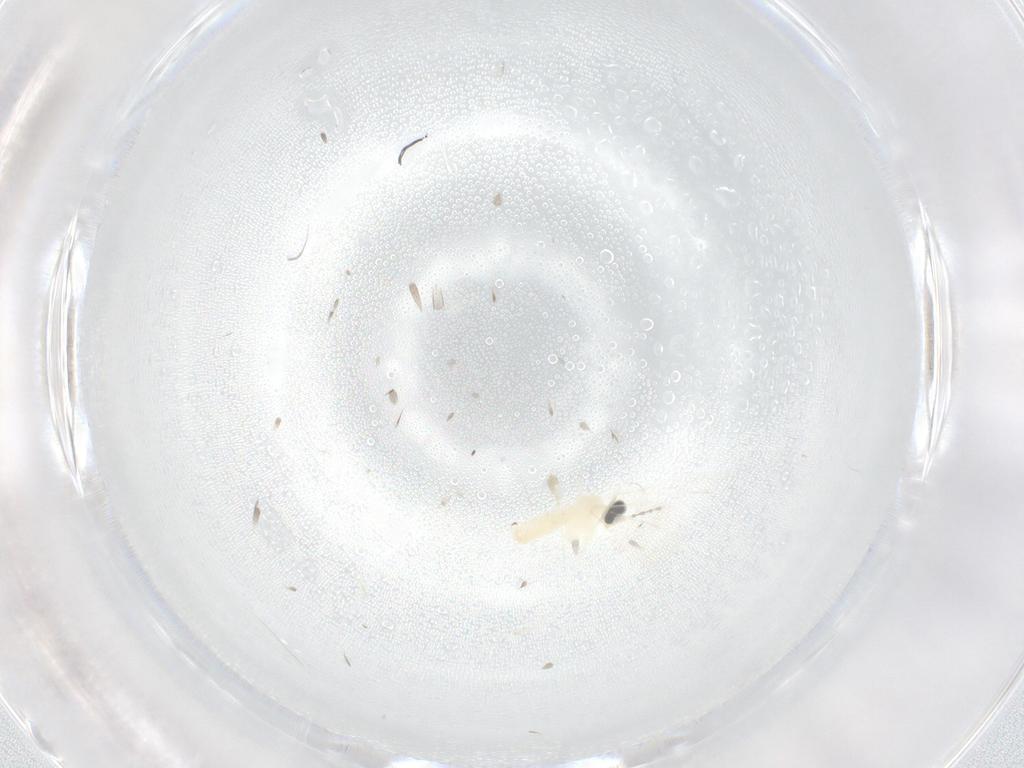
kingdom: Animalia
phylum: Arthropoda
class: Insecta
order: Diptera
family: Cecidomyiidae
